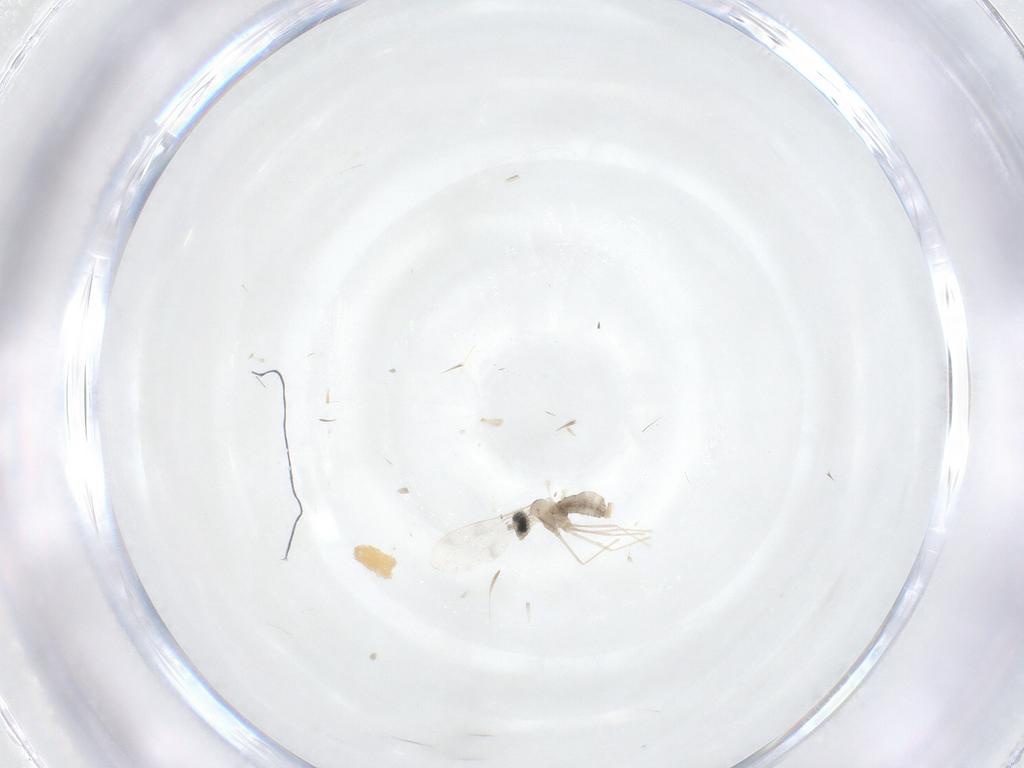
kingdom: Animalia
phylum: Arthropoda
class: Insecta
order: Diptera
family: Cecidomyiidae
